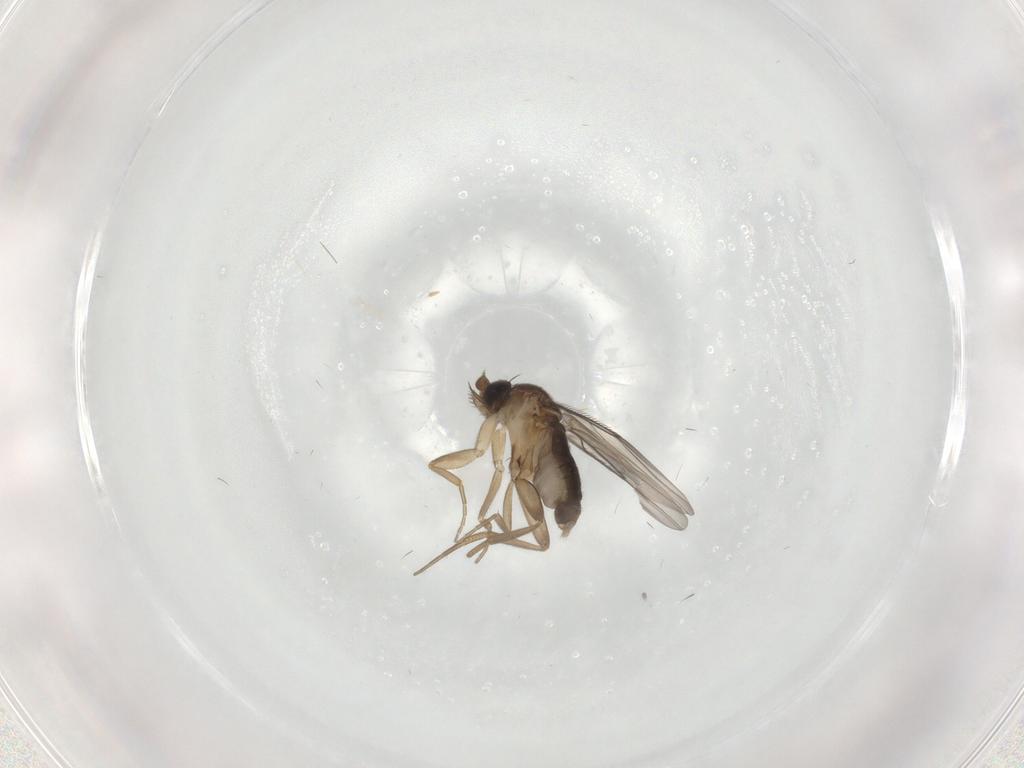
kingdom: Animalia
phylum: Arthropoda
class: Insecta
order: Diptera
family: Phoridae
